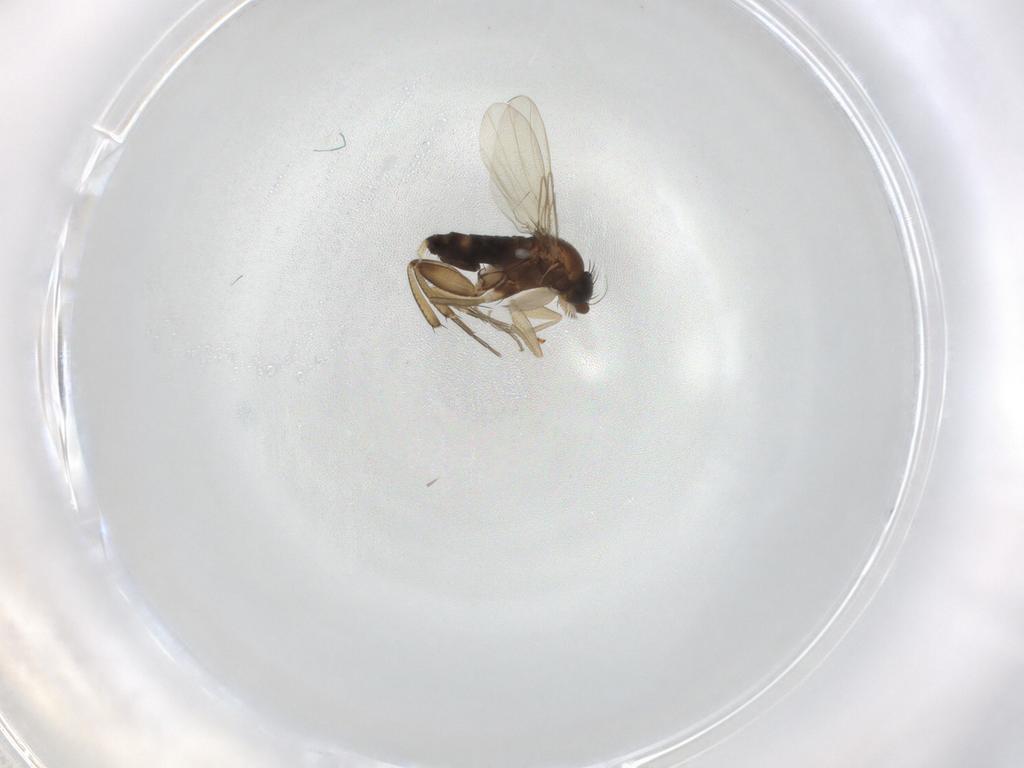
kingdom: Animalia
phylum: Arthropoda
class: Insecta
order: Diptera
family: Phoridae
